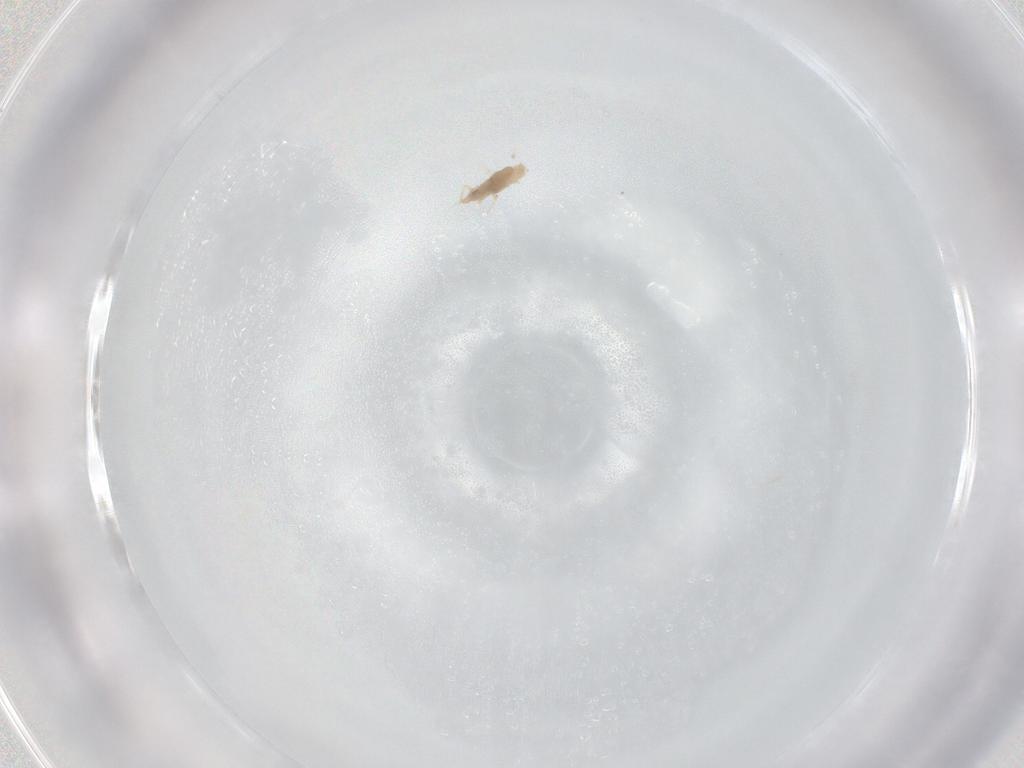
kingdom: Animalia
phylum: Arthropoda
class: Insecta
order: Hemiptera
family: Coccoidea_incertae_sedis
